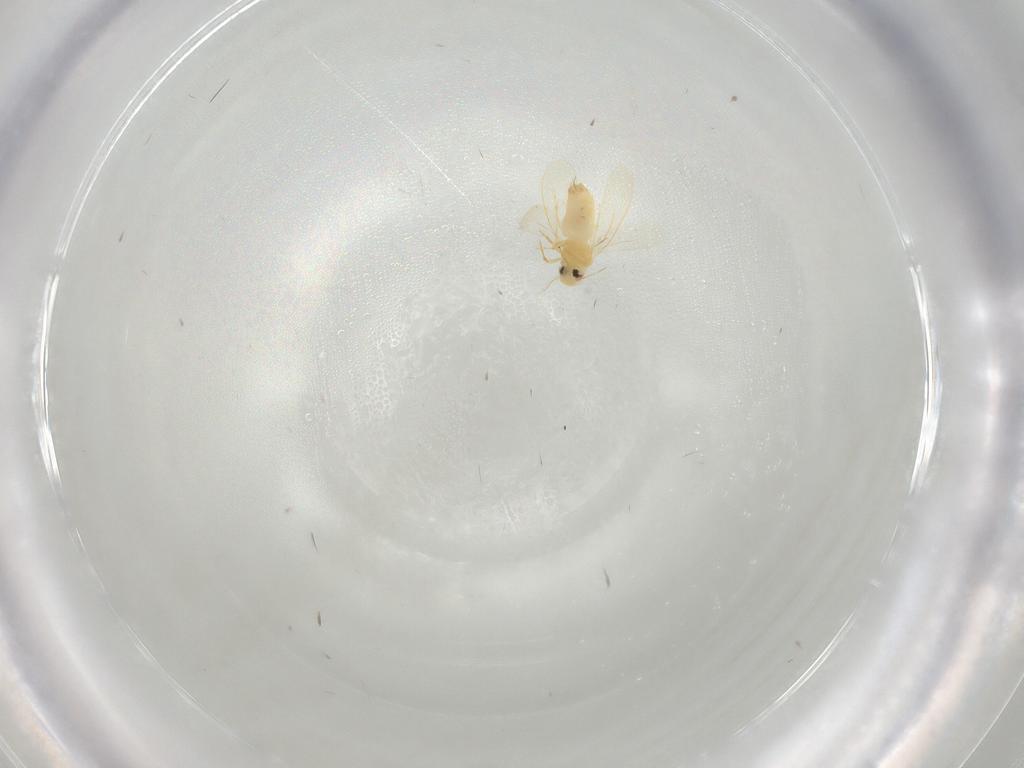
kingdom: Animalia
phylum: Arthropoda
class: Insecta
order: Hemiptera
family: Aleyrodidae
